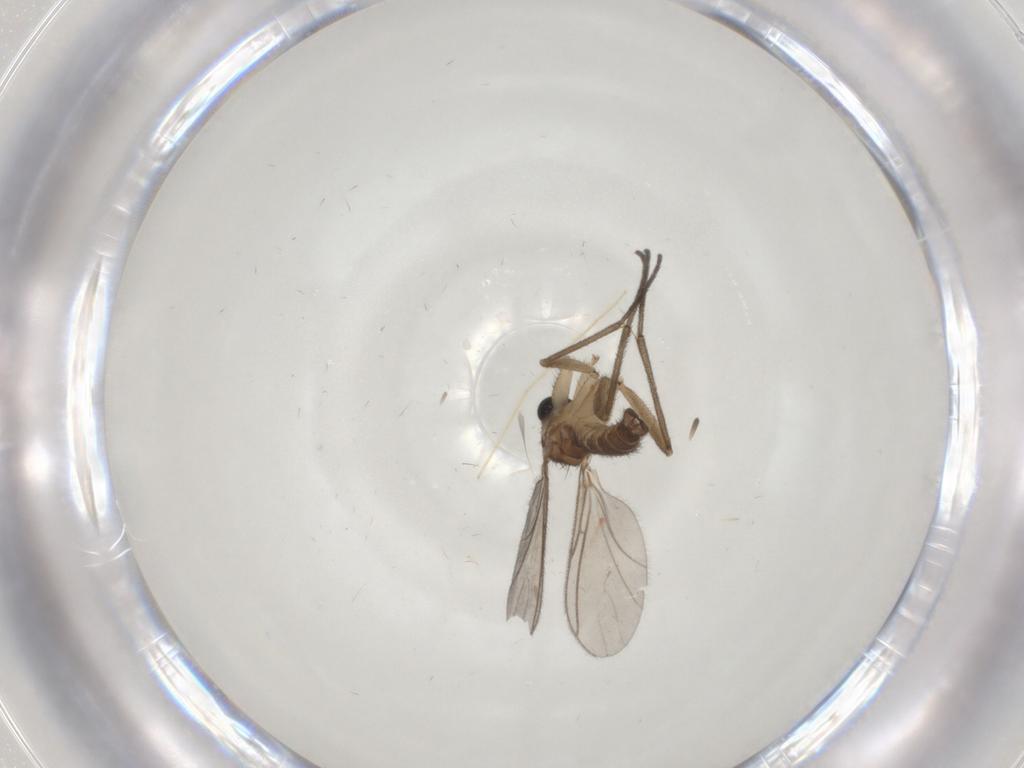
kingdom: Animalia
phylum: Arthropoda
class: Insecta
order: Diptera
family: Sciaridae
